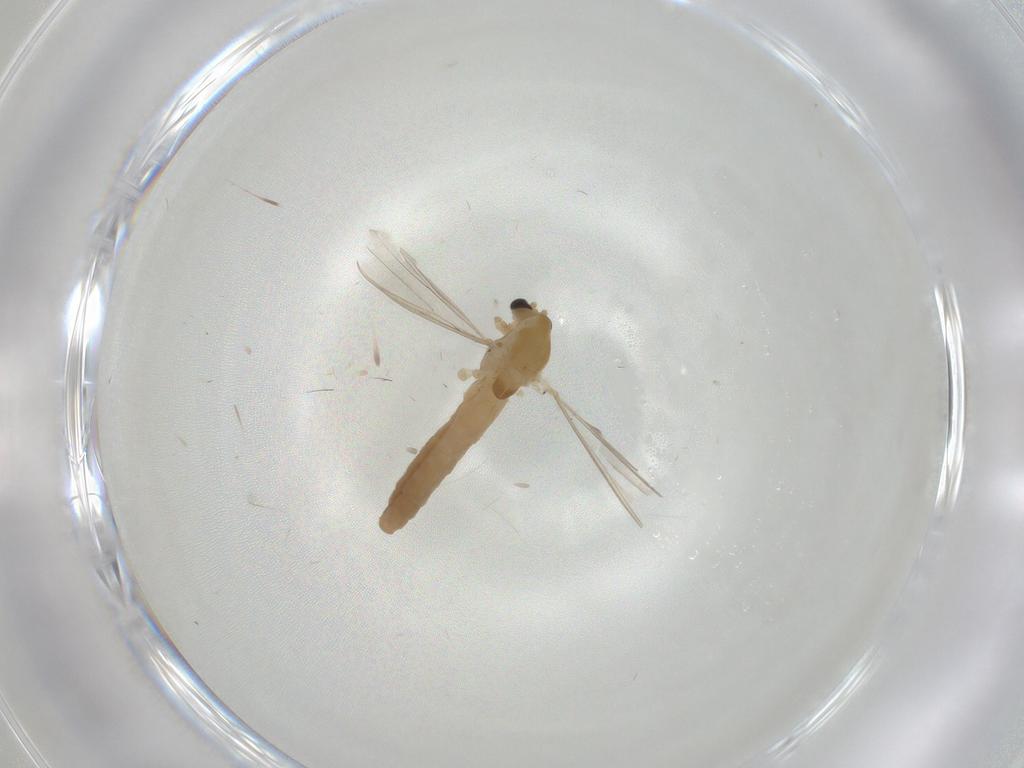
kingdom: Animalia
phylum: Arthropoda
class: Insecta
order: Diptera
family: Chironomidae
